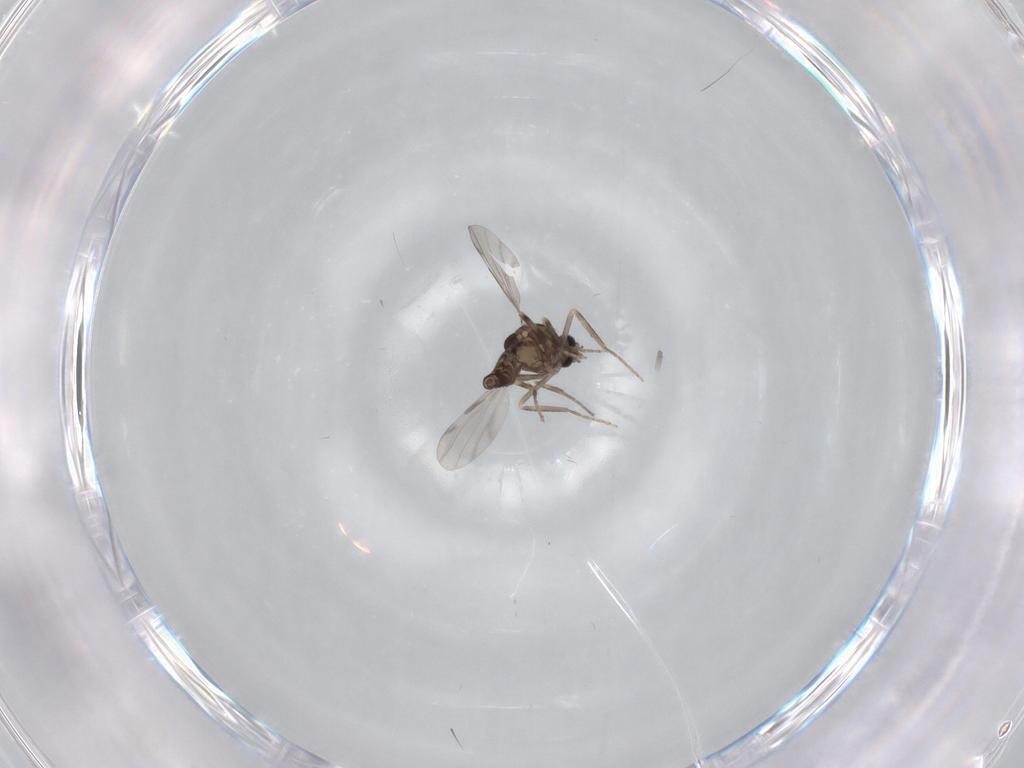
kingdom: Animalia
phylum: Arthropoda
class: Insecta
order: Diptera
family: Ceratopogonidae
